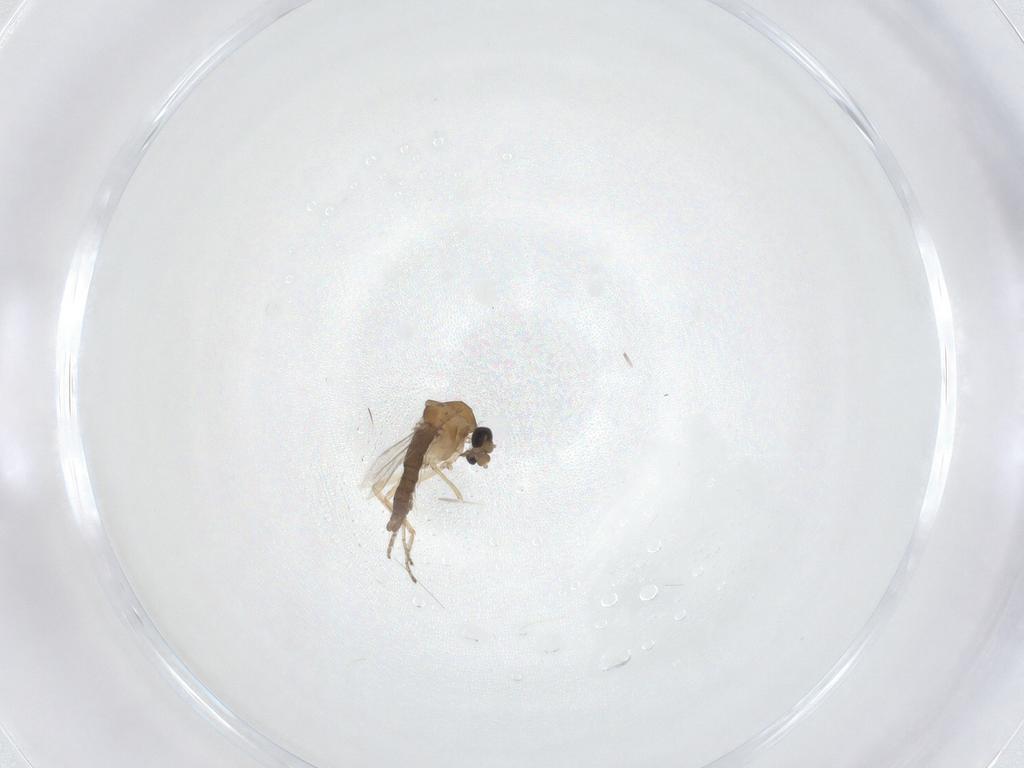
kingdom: Animalia
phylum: Arthropoda
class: Insecta
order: Diptera
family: Ceratopogonidae
